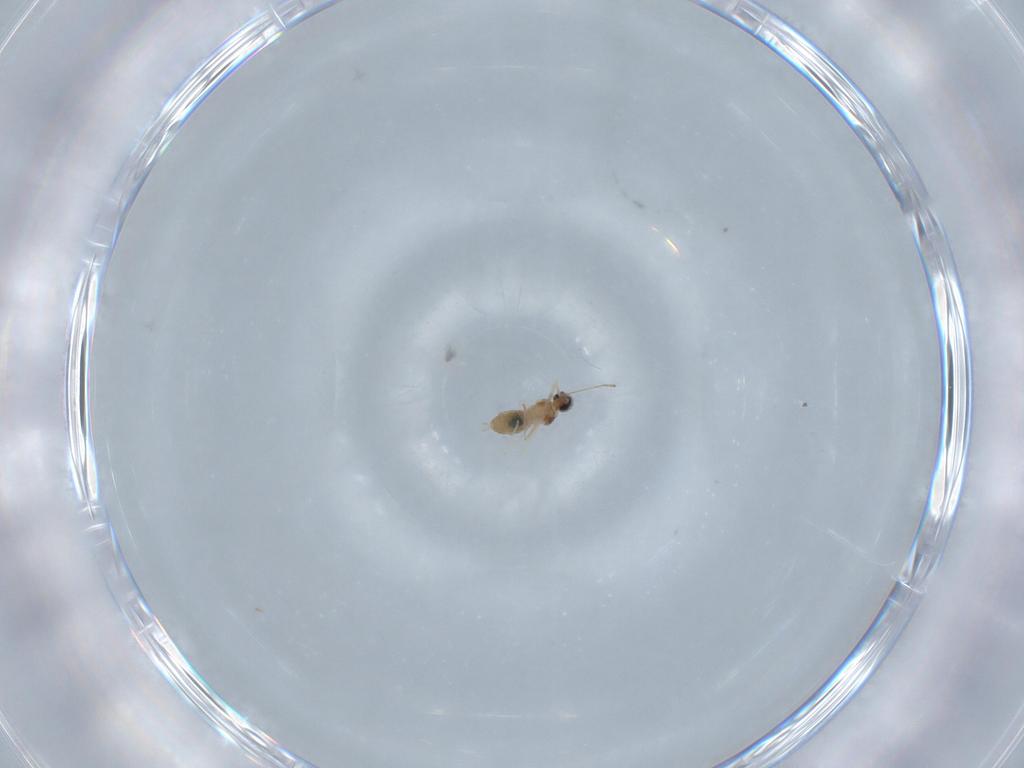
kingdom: Animalia
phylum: Arthropoda
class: Insecta
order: Diptera
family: Cecidomyiidae
